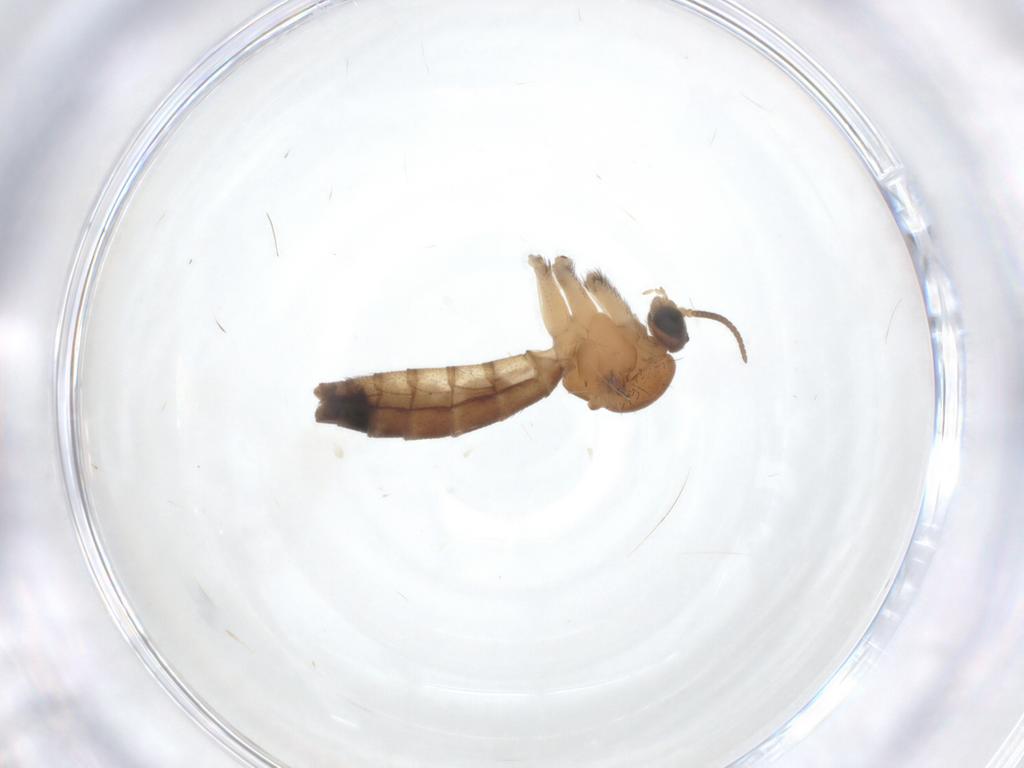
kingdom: Animalia
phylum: Arthropoda
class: Insecta
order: Diptera
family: Keroplatidae
